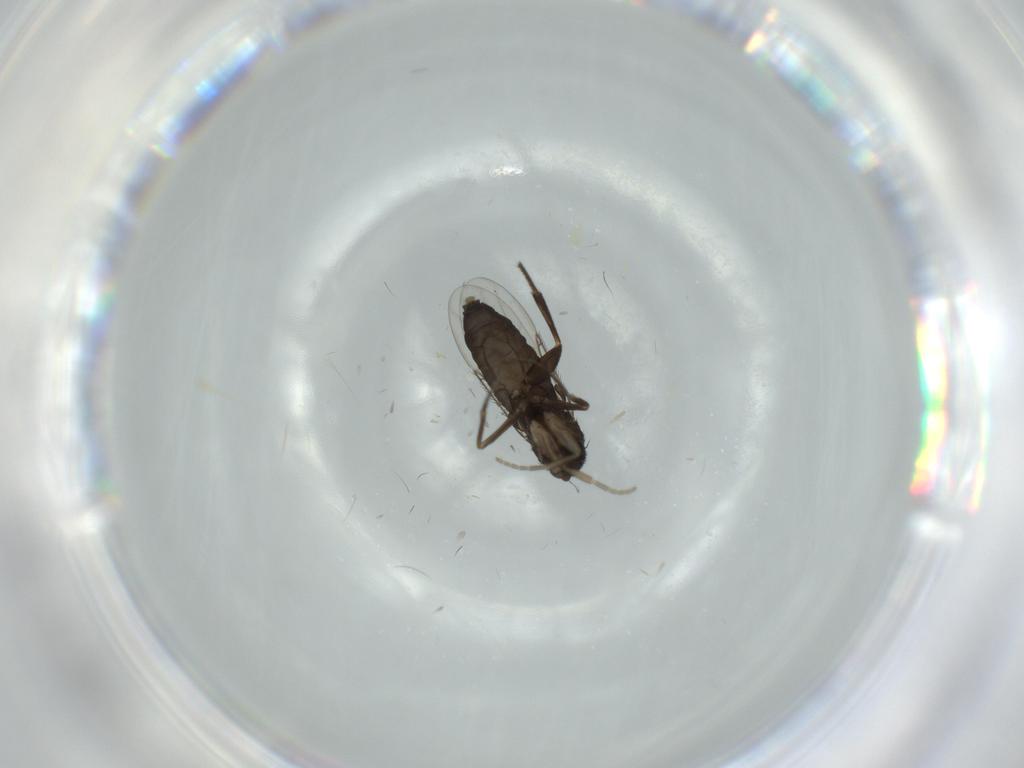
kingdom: Animalia
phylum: Arthropoda
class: Insecta
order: Diptera
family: Phoridae
